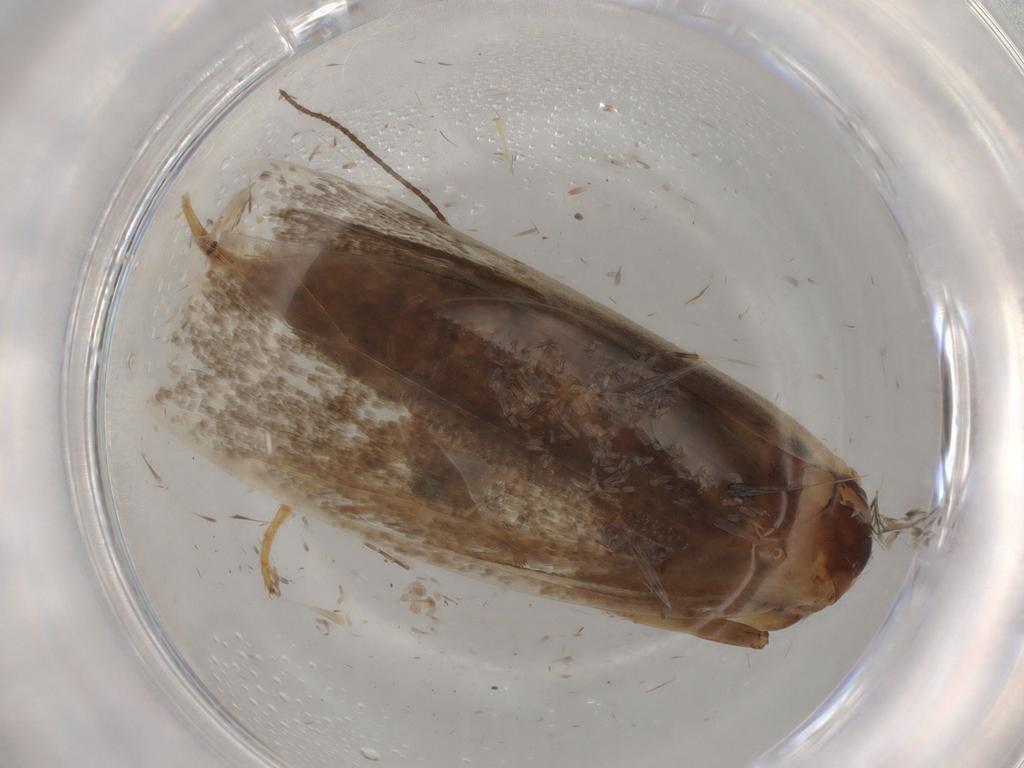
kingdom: Animalia
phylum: Arthropoda
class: Insecta
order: Lepidoptera
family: Tineidae
